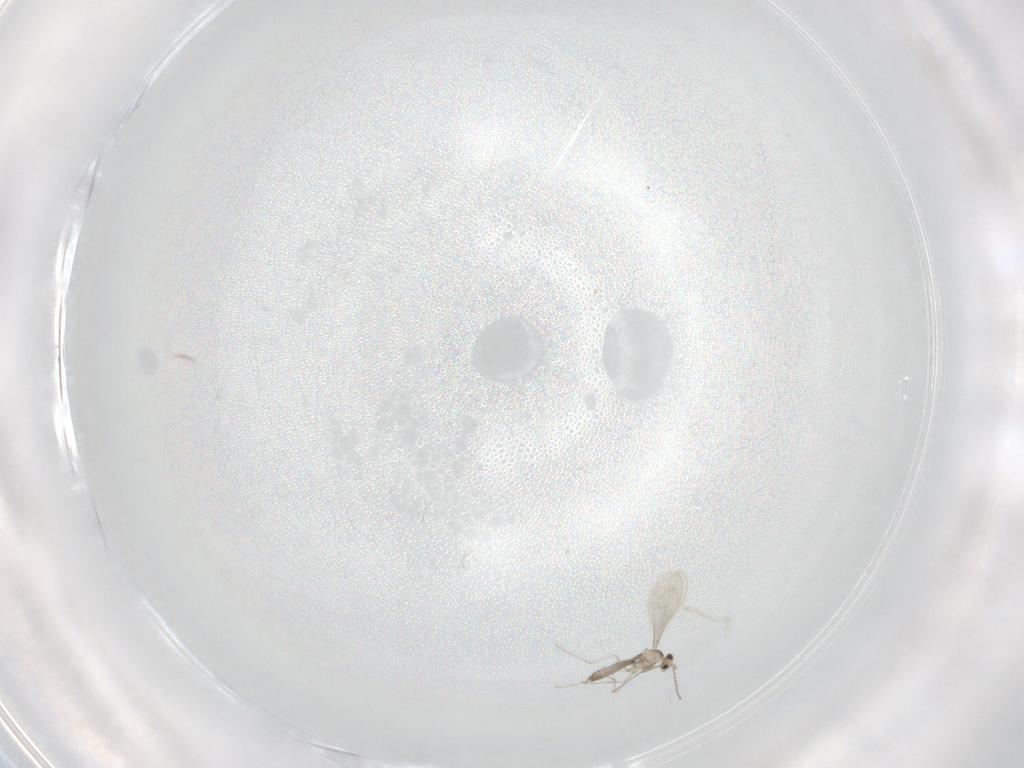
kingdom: Animalia
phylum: Arthropoda
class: Insecta
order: Diptera
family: Cecidomyiidae
